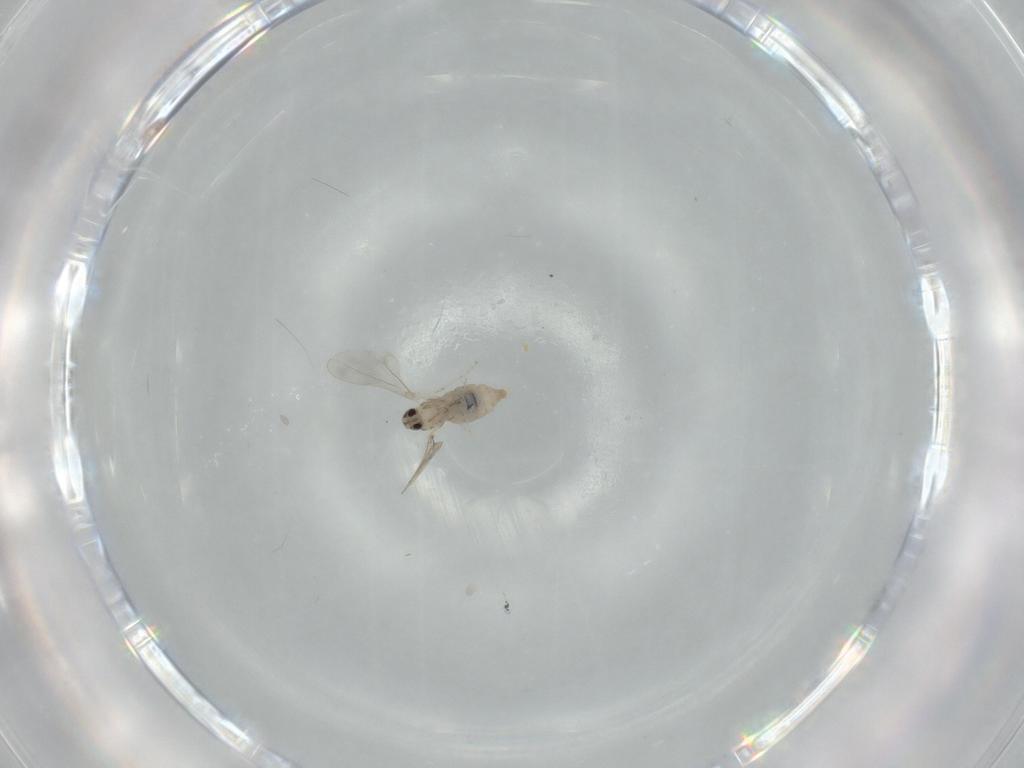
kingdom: Animalia
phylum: Arthropoda
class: Insecta
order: Diptera
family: Cecidomyiidae
